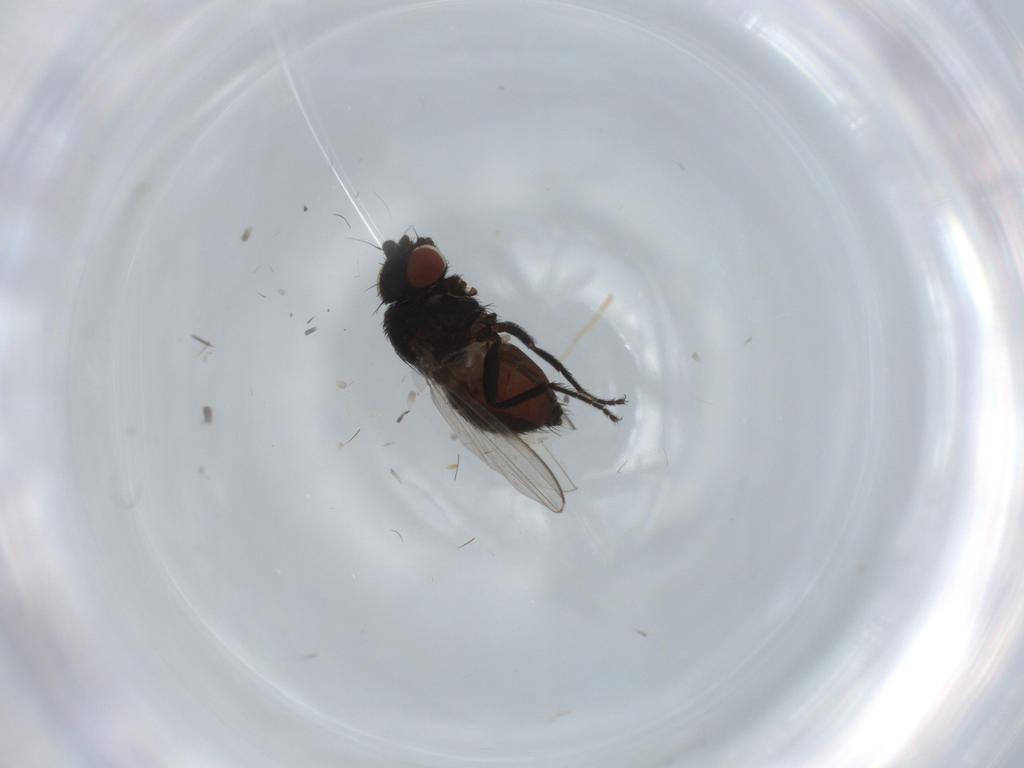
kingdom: Animalia
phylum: Arthropoda
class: Insecta
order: Diptera
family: Fannia
